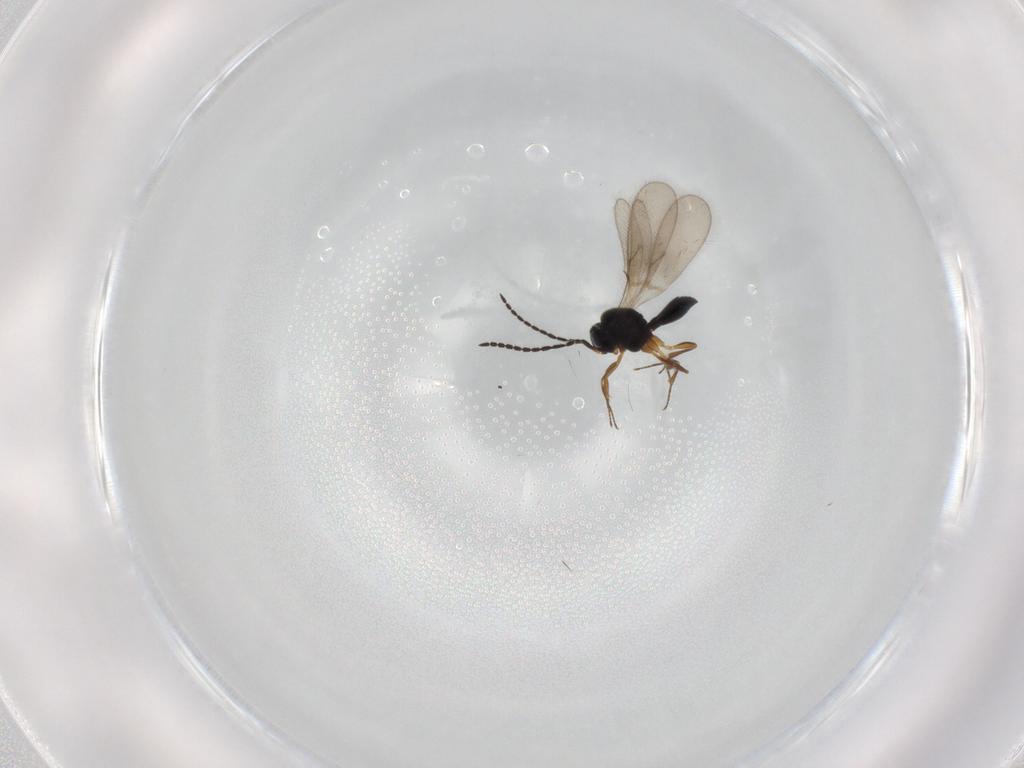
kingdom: Animalia
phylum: Arthropoda
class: Insecta
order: Hymenoptera
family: Scelionidae
